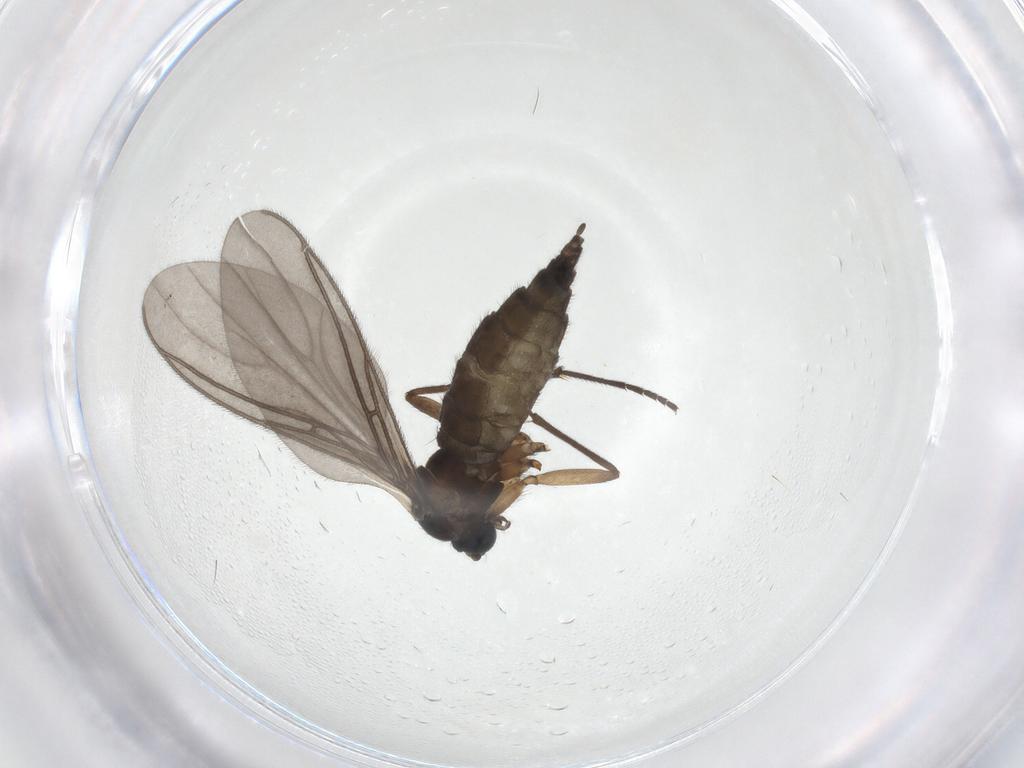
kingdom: Animalia
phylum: Arthropoda
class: Insecta
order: Diptera
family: Sciaridae
